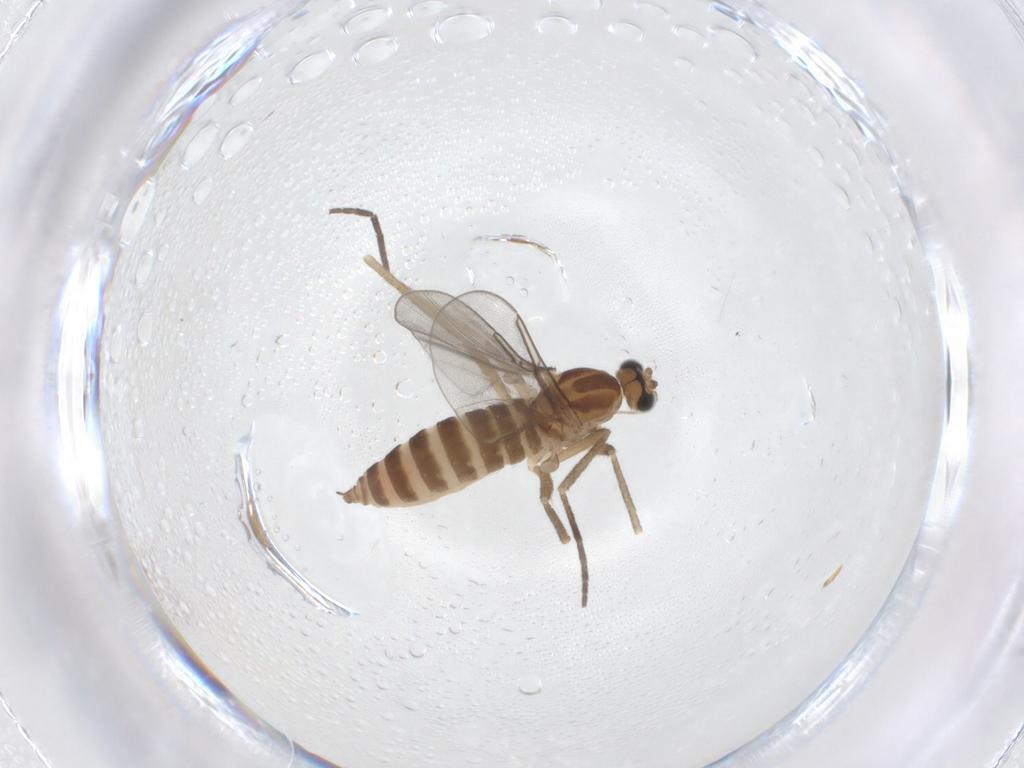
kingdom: Animalia
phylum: Arthropoda
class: Insecta
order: Diptera
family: Cecidomyiidae
